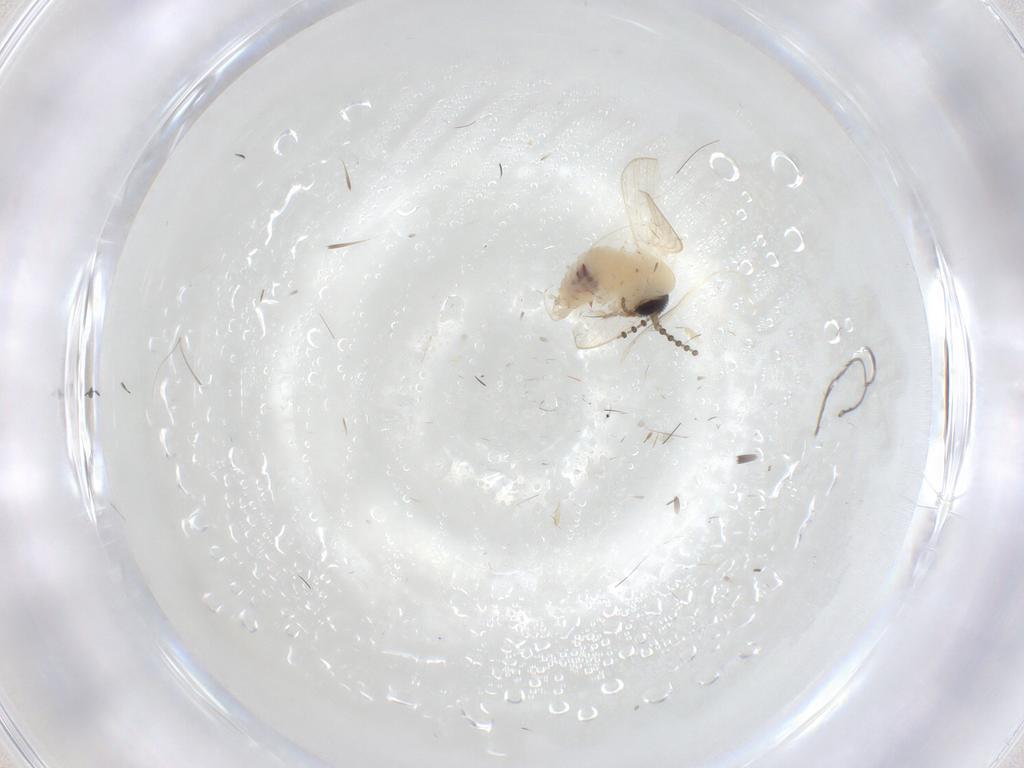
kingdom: Animalia
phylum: Arthropoda
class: Insecta
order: Diptera
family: Psychodidae
